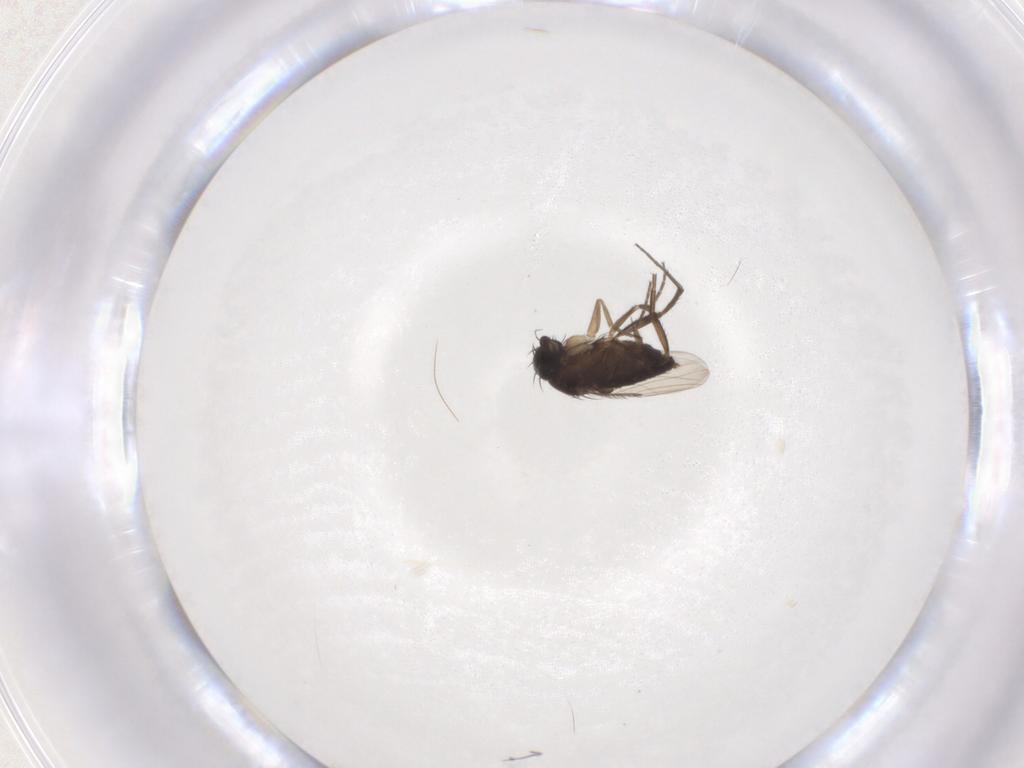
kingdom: Animalia
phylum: Arthropoda
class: Insecta
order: Diptera
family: Phoridae
